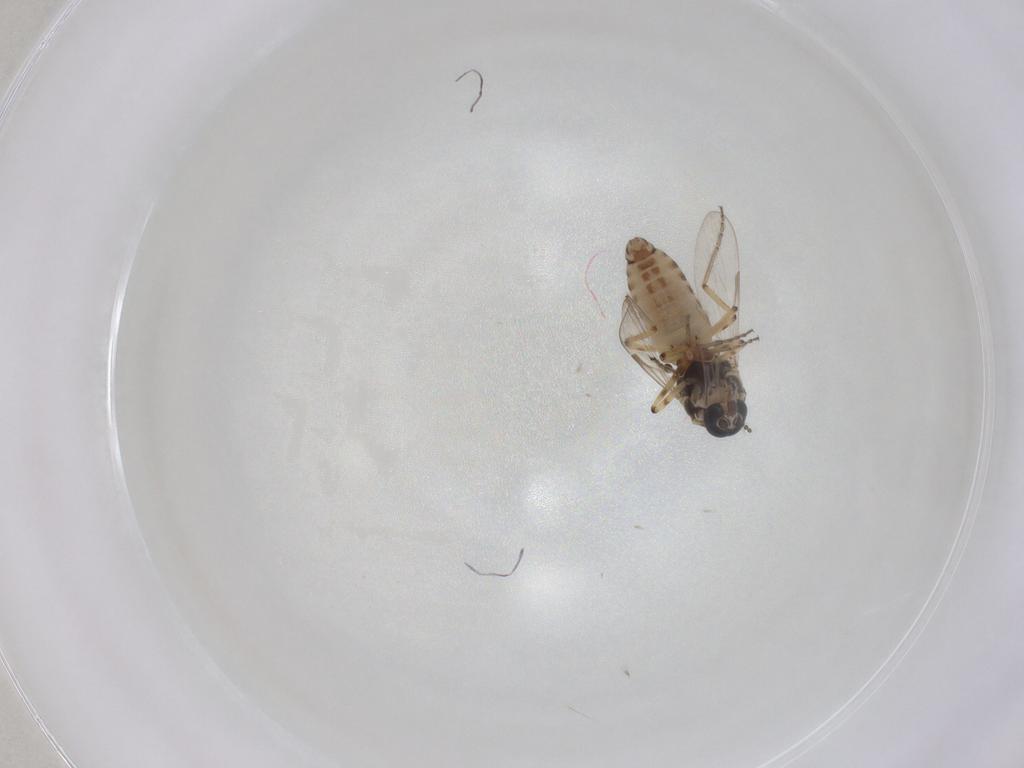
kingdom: Animalia
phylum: Arthropoda
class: Insecta
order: Diptera
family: Ceratopogonidae
